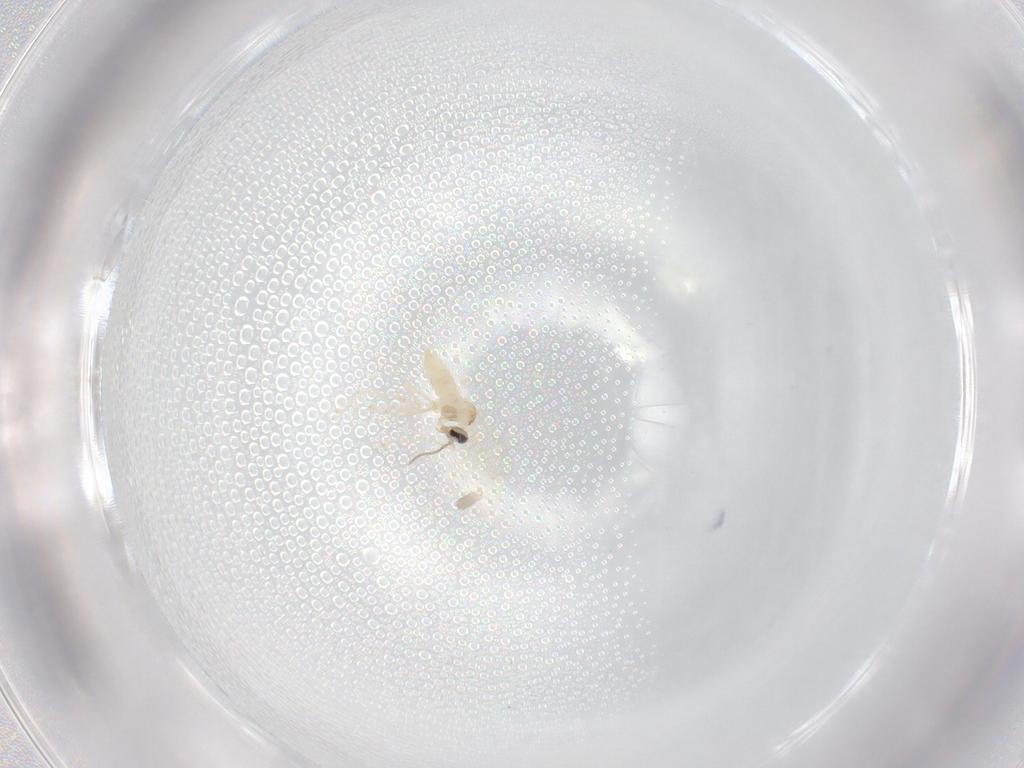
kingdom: Animalia
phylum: Arthropoda
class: Insecta
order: Diptera
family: Cecidomyiidae
